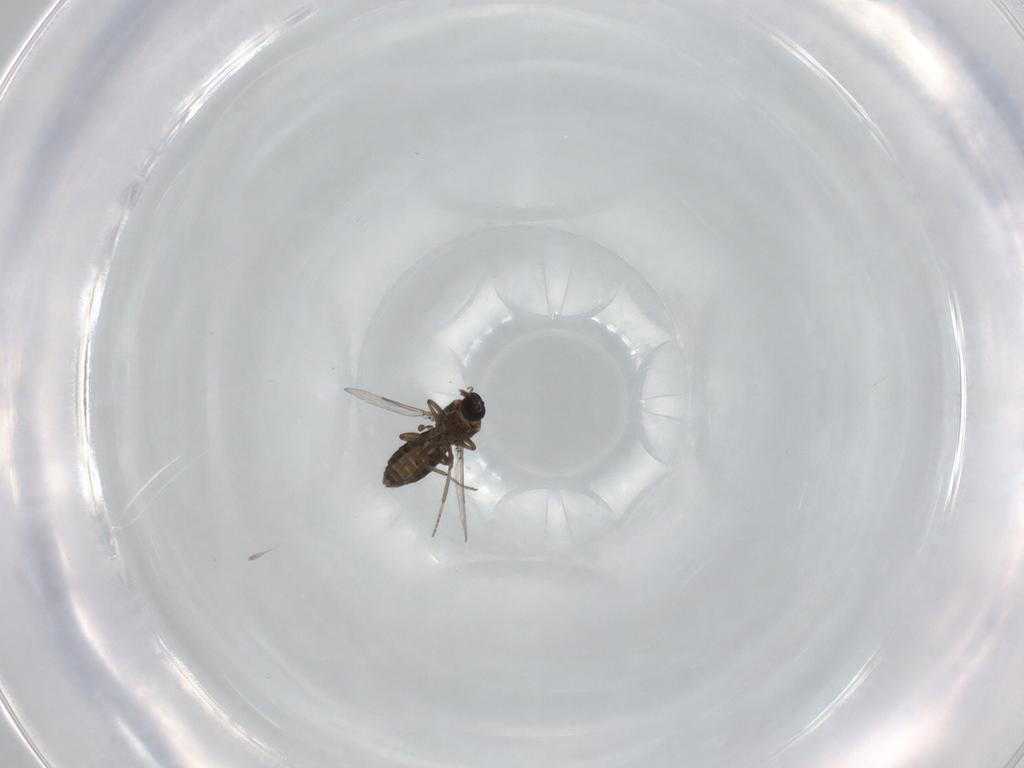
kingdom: Animalia
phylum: Arthropoda
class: Insecta
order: Diptera
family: Ceratopogonidae
